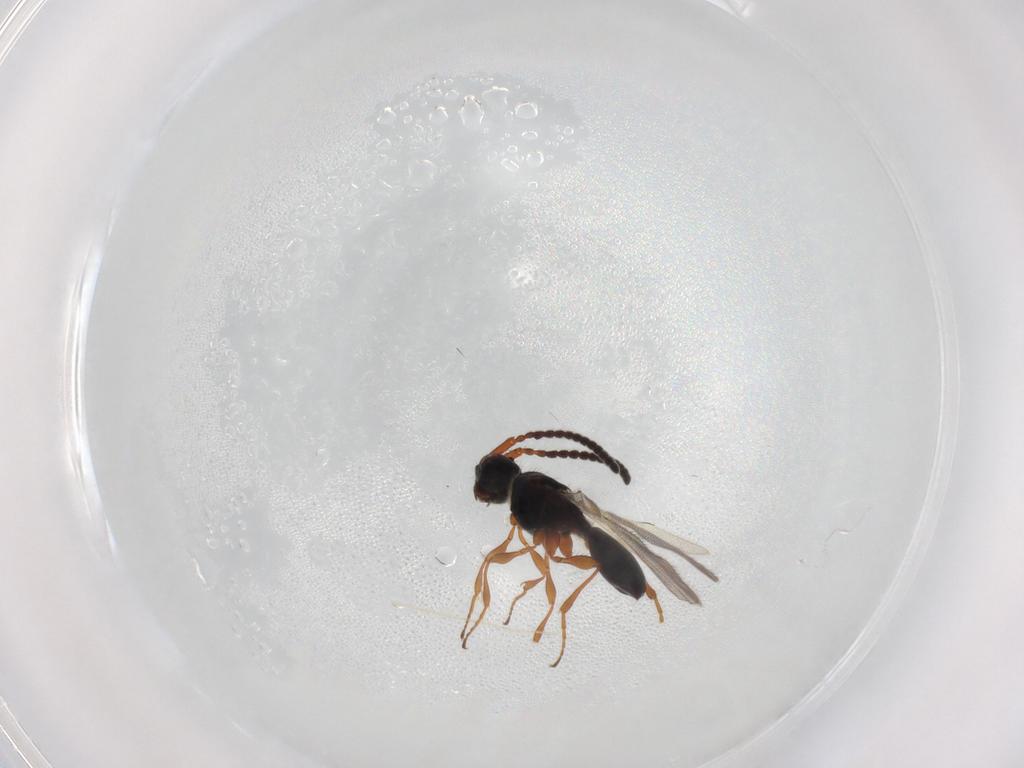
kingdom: Animalia
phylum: Arthropoda
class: Insecta
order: Hymenoptera
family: Diapriidae
